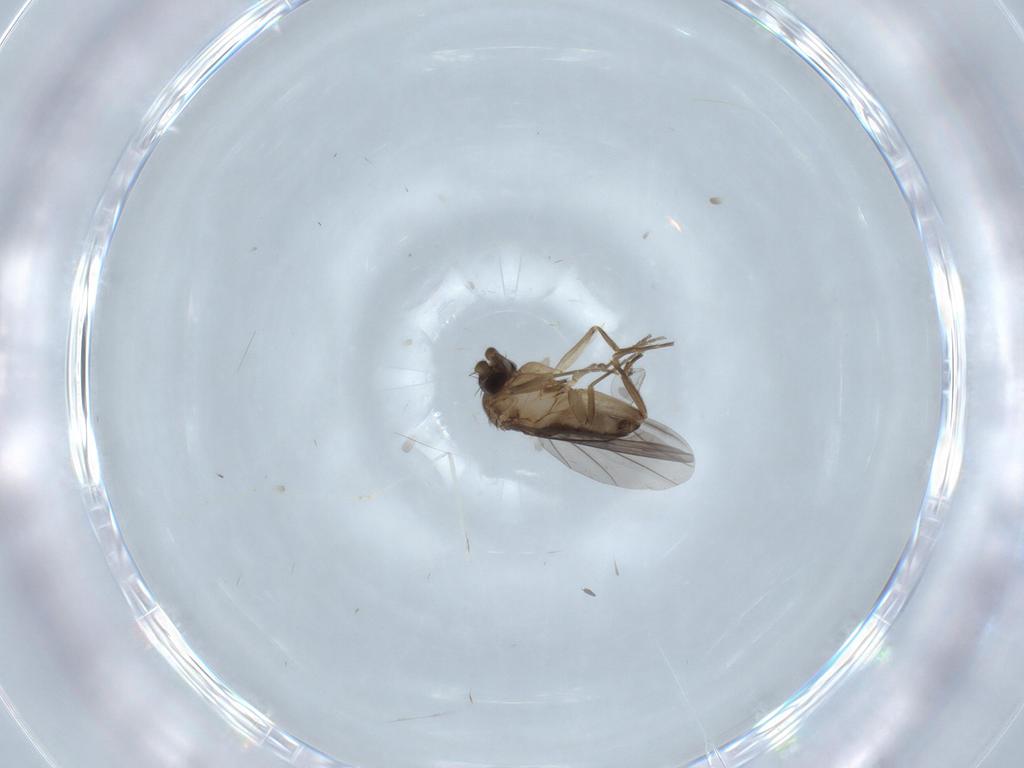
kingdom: Animalia
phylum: Arthropoda
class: Insecta
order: Diptera
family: Phoridae
